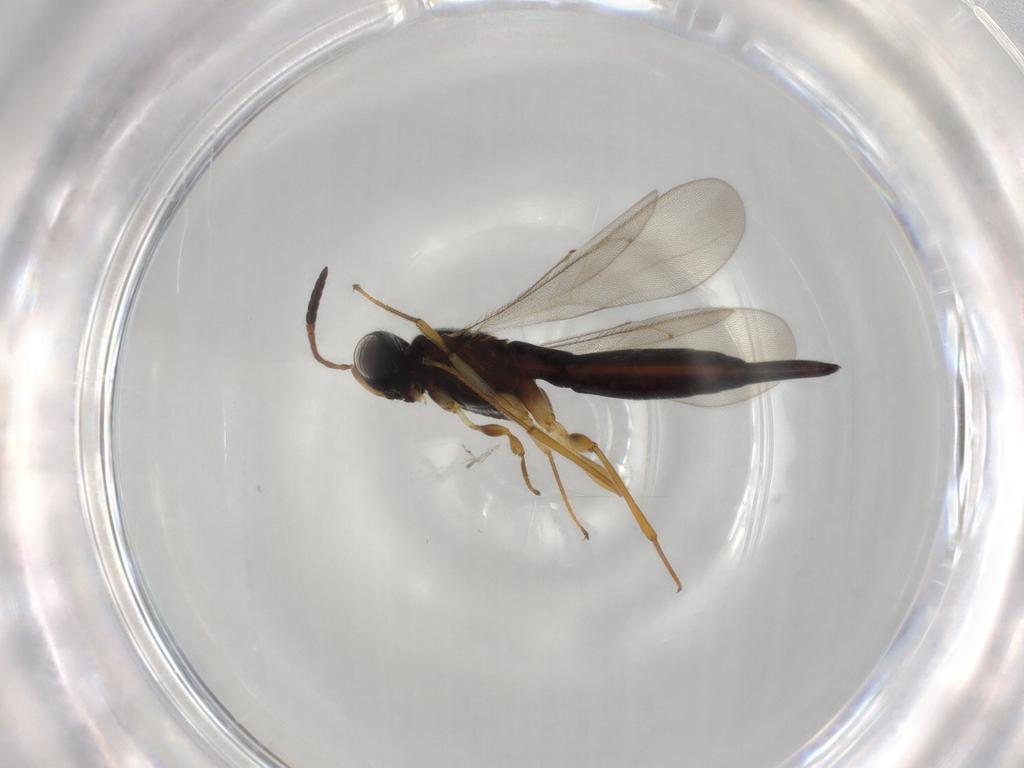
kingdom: Animalia
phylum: Arthropoda
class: Insecta
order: Hymenoptera
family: Scelionidae
